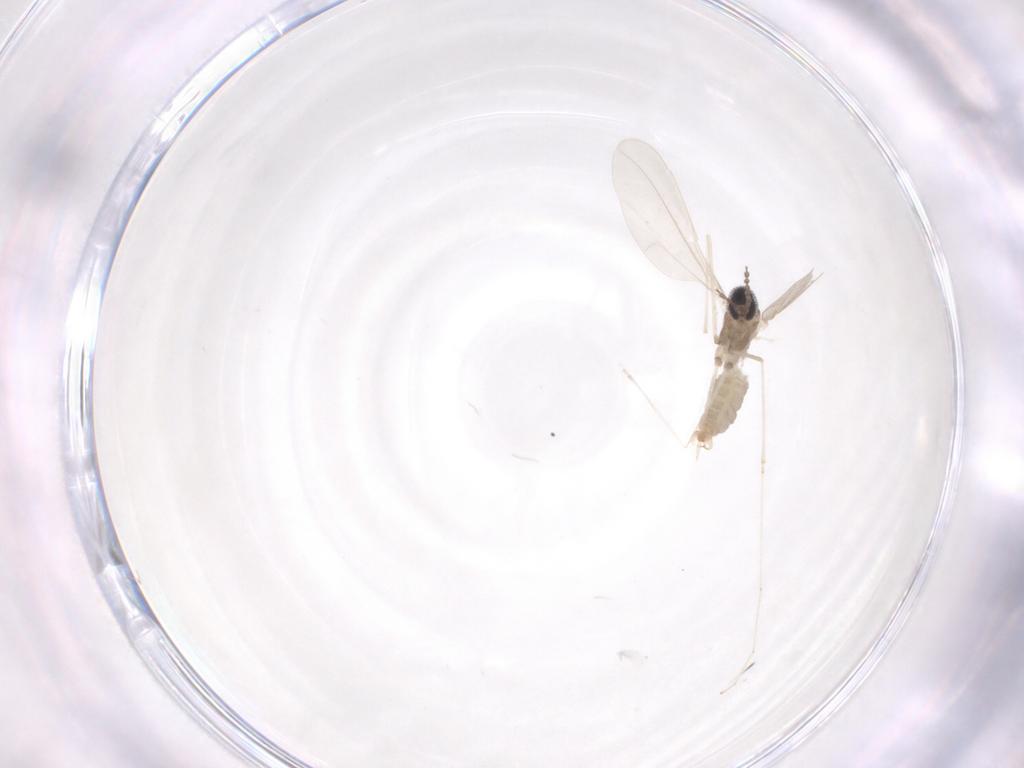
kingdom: Animalia
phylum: Arthropoda
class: Insecta
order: Diptera
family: Cecidomyiidae
